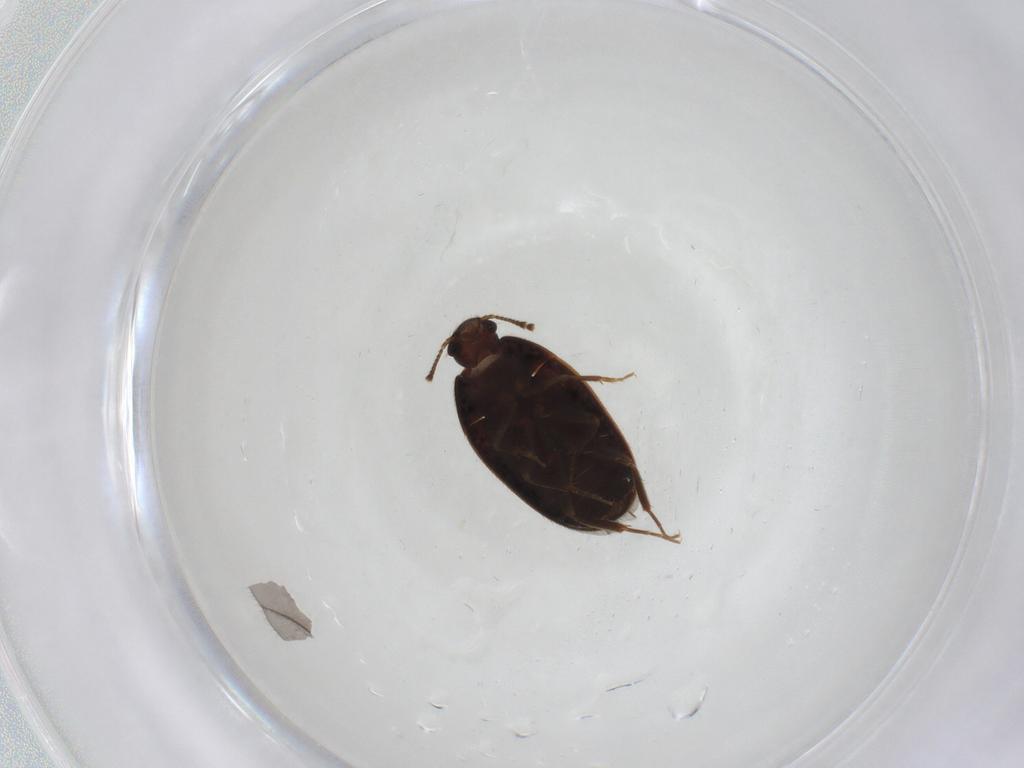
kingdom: Animalia
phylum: Arthropoda
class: Insecta
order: Coleoptera
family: Mycetophagidae
